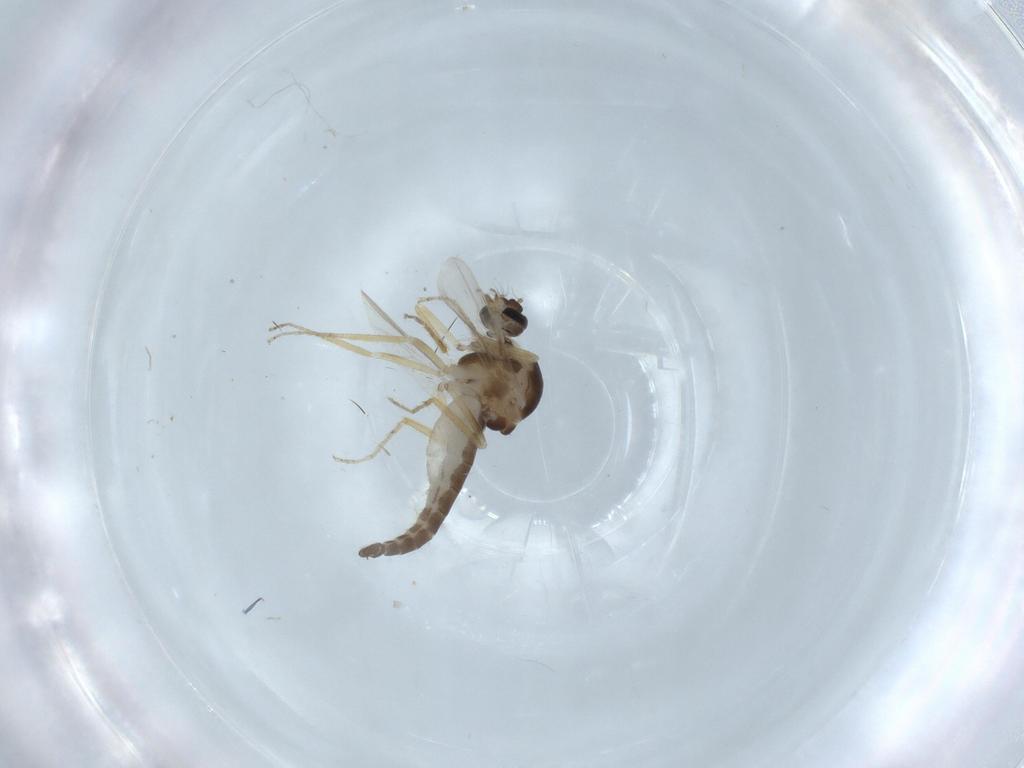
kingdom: Animalia
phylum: Arthropoda
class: Insecta
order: Diptera
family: Ceratopogonidae
